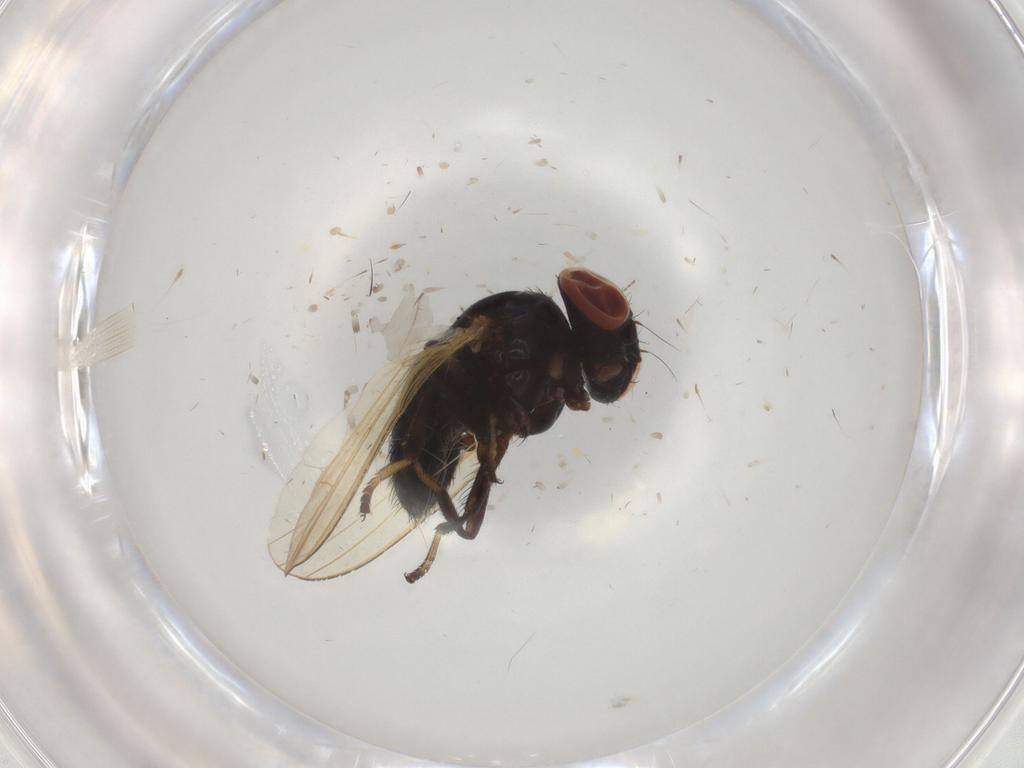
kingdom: Animalia
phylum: Arthropoda
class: Insecta
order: Diptera
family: Lonchaeidae
